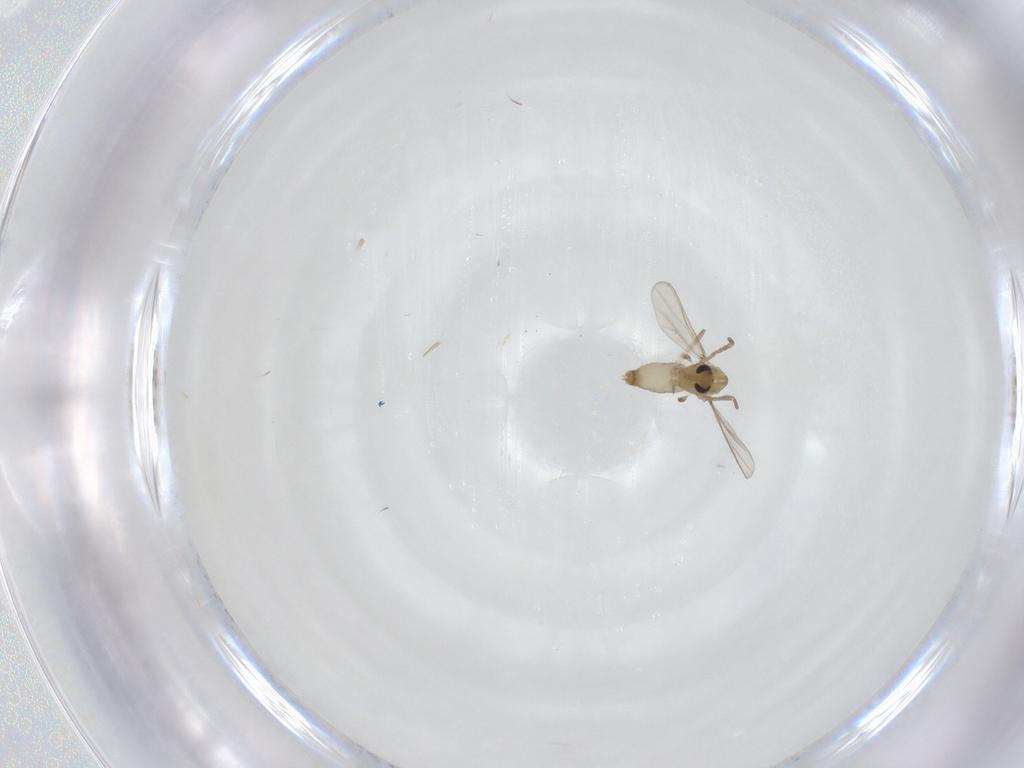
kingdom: Animalia
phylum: Arthropoda
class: Insecta
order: Diptera
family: Chironomidae
